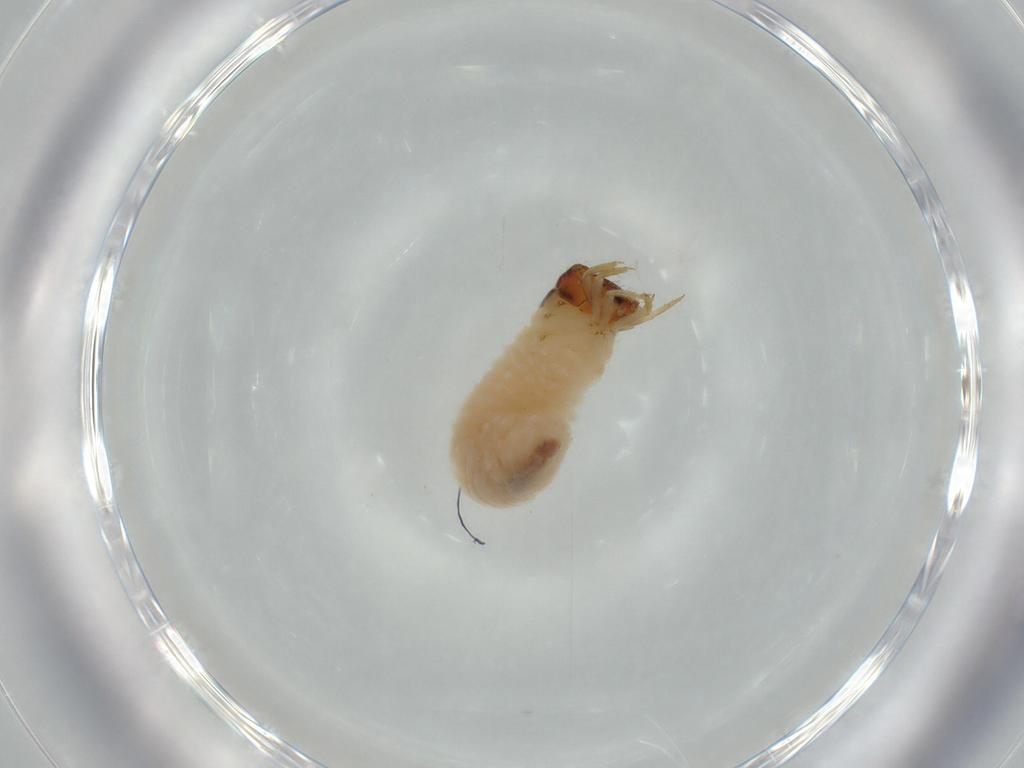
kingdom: Animalia
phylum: Arthropoda
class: Insecta
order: Coleoptera
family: Chrysomelidae
